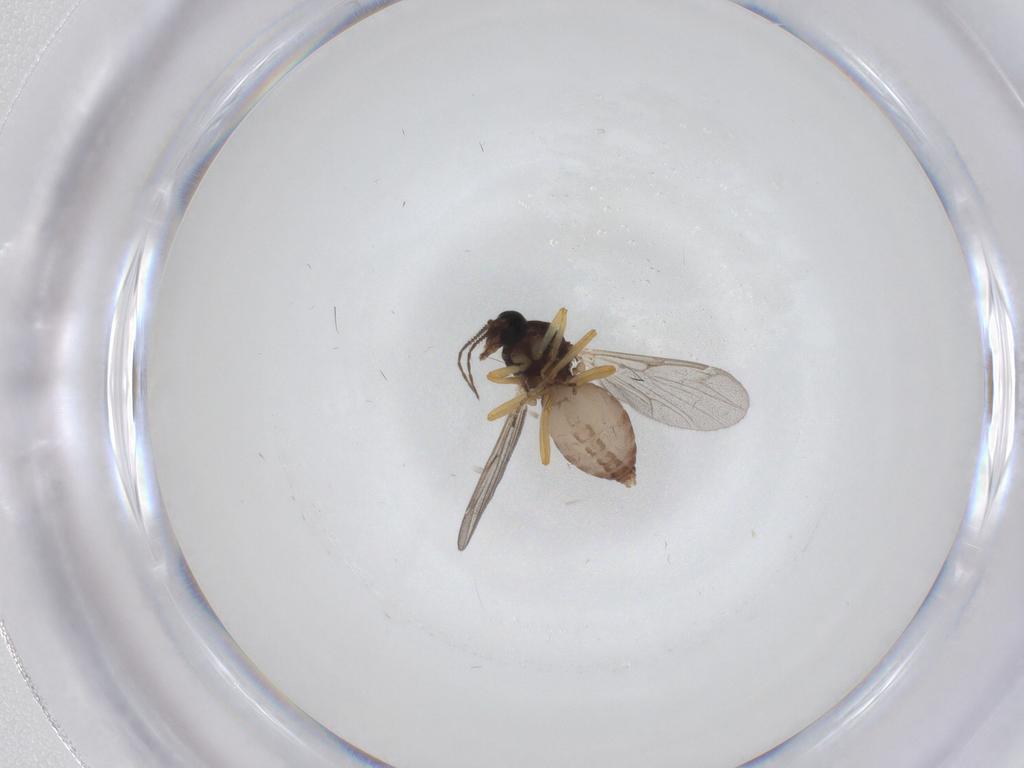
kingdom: Animalia
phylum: Arthropoda
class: Insecta
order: Diptera
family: Ceratopogonidae
